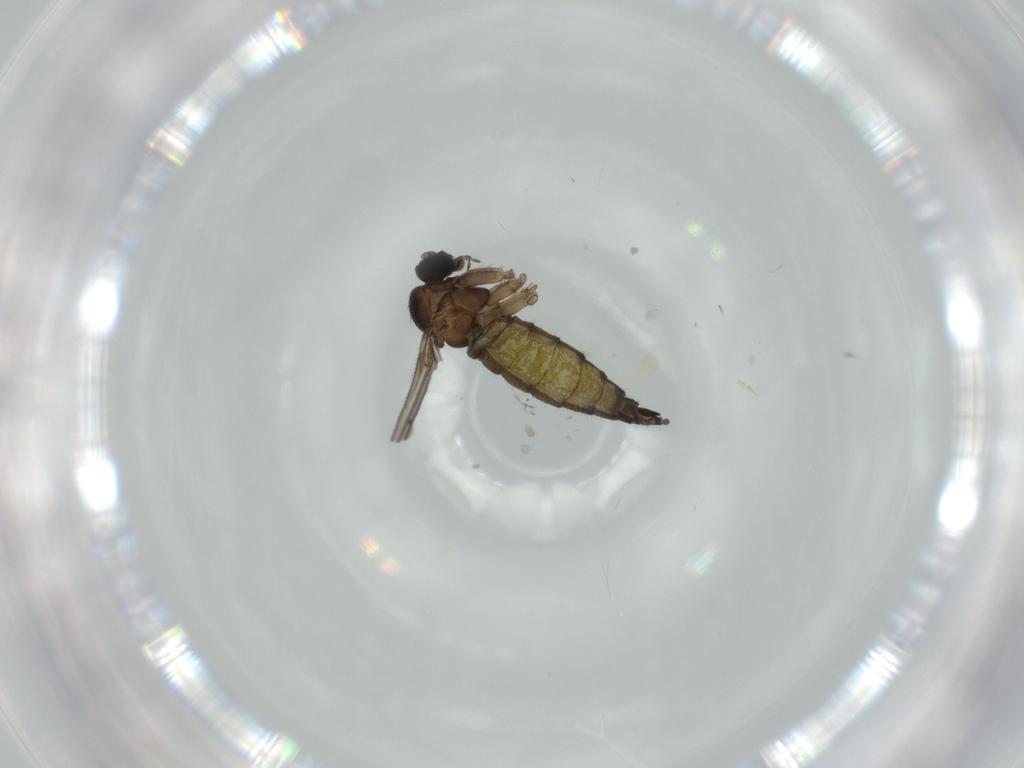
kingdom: Animalia
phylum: Arthropoda
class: Insecta
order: Diptera
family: Sciaridae
